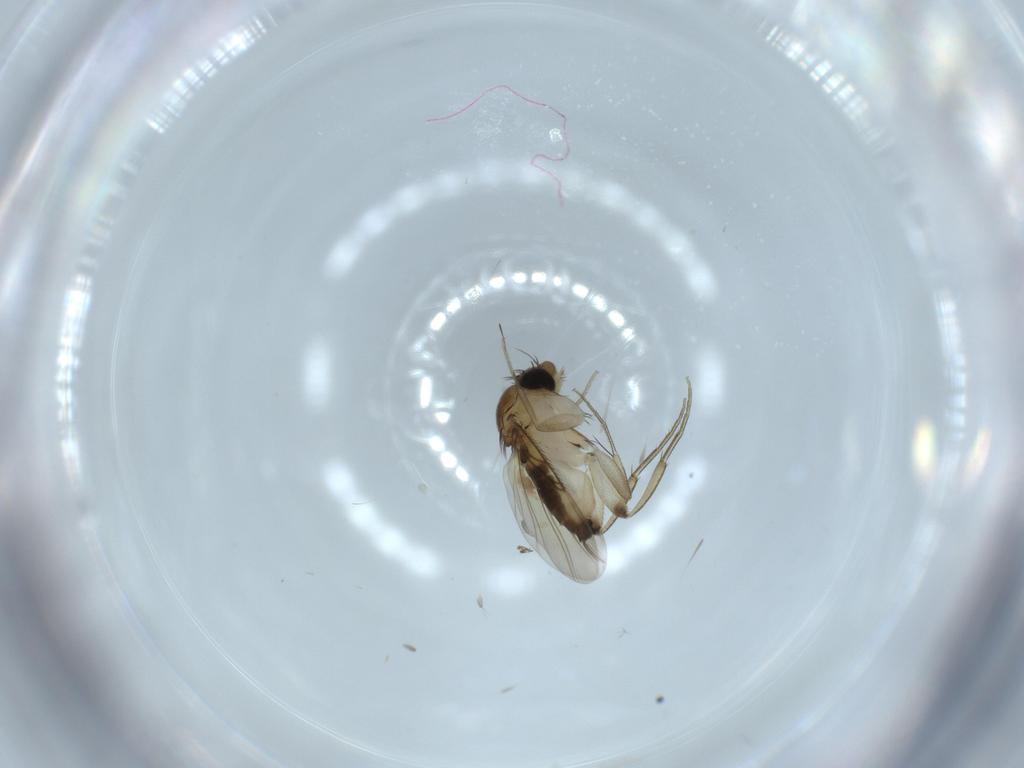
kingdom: Animalia
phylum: Arthropoda
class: Insecta
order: Diptera
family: Phoridae
